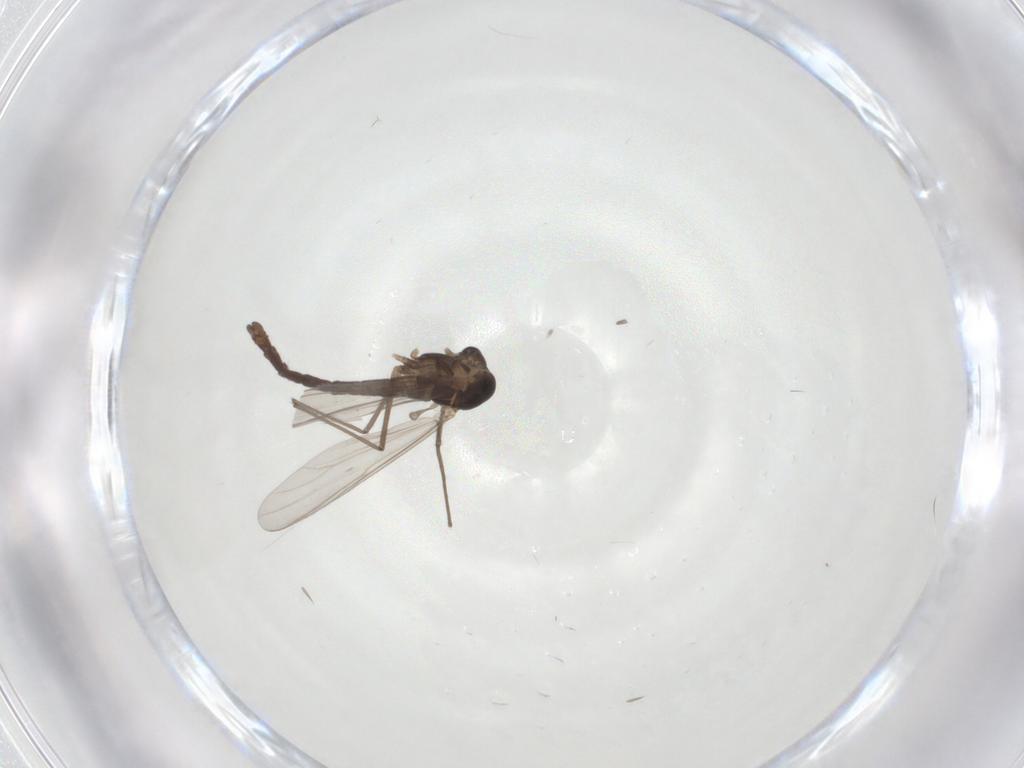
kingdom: Animalia
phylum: Arthropoda
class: Insecta
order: Diptera
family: Chironomidae
